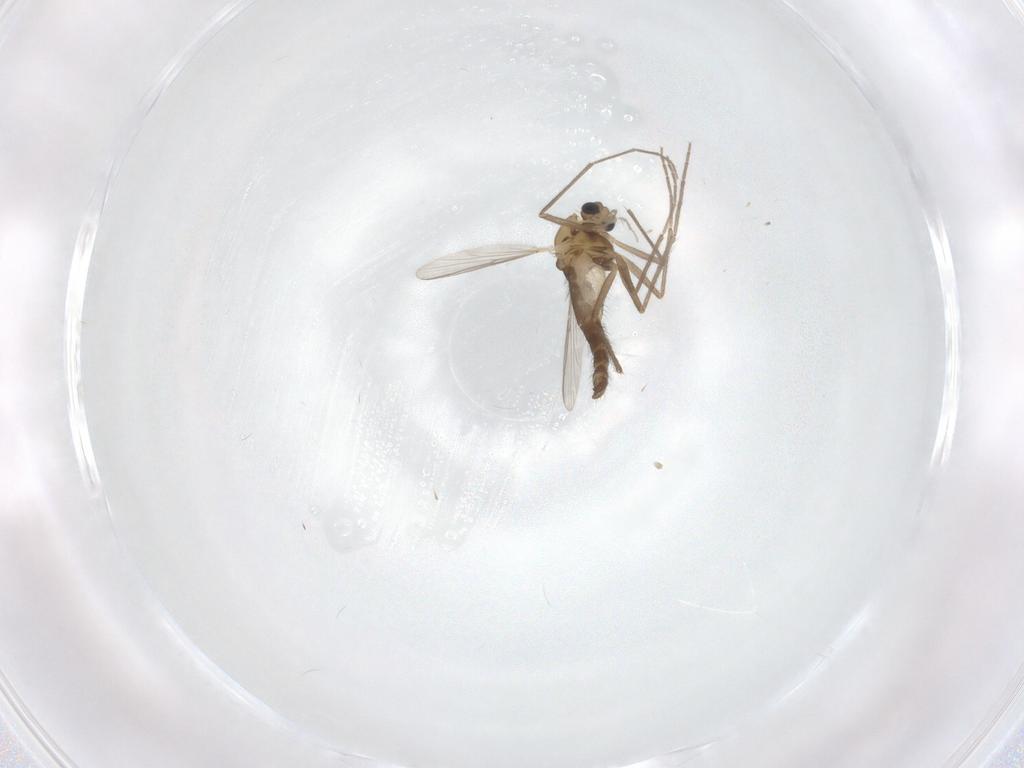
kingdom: Animalia
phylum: Arthropoda
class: Insecta
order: Diptera
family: Chironomidae
